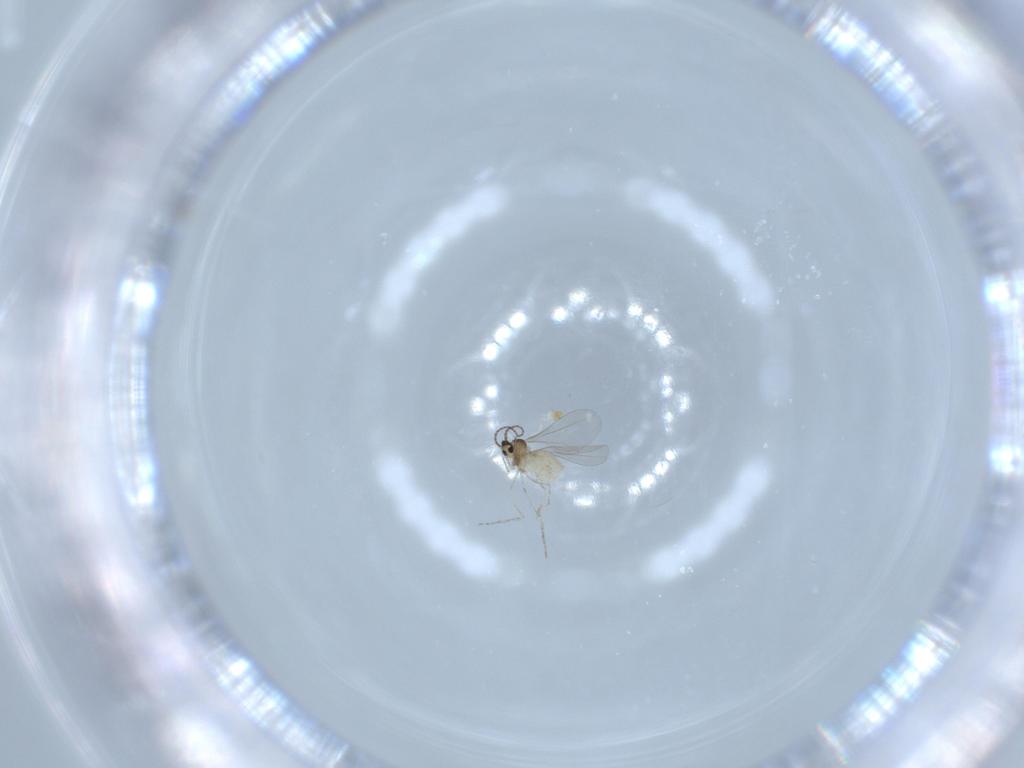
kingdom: Animalia
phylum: Arthropoda
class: Insecta
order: Diptera
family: Cecidomyiidae
